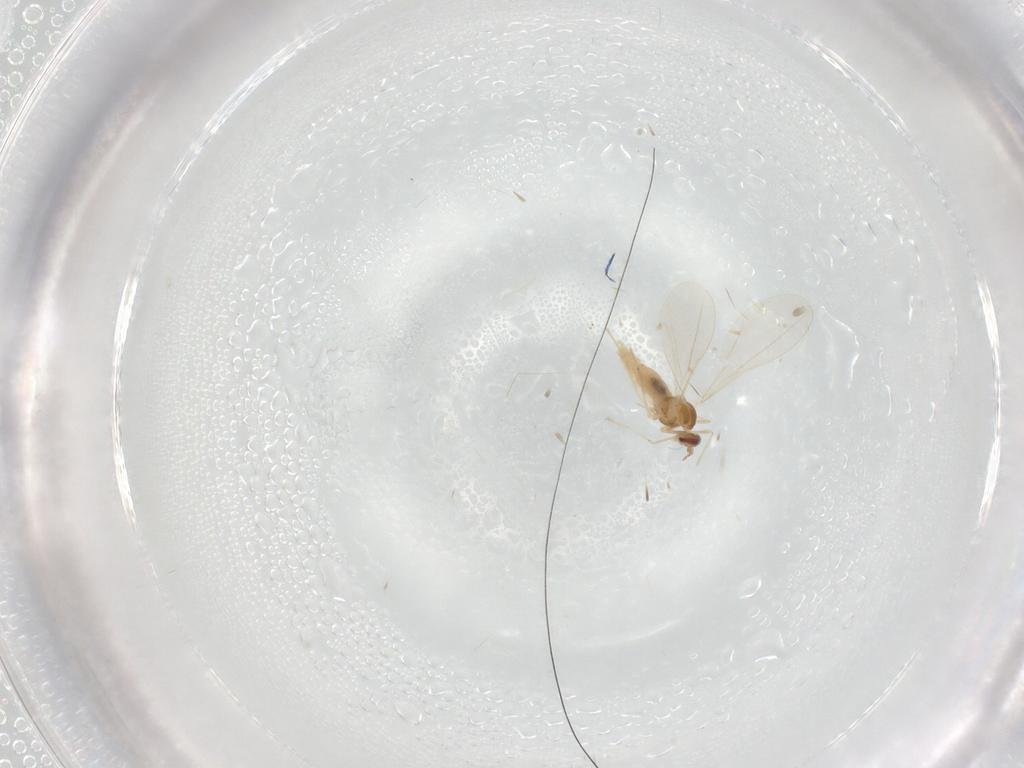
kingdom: Animalia
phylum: Arthropoda
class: Insecta
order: Diptera
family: Cecidomyiidae
